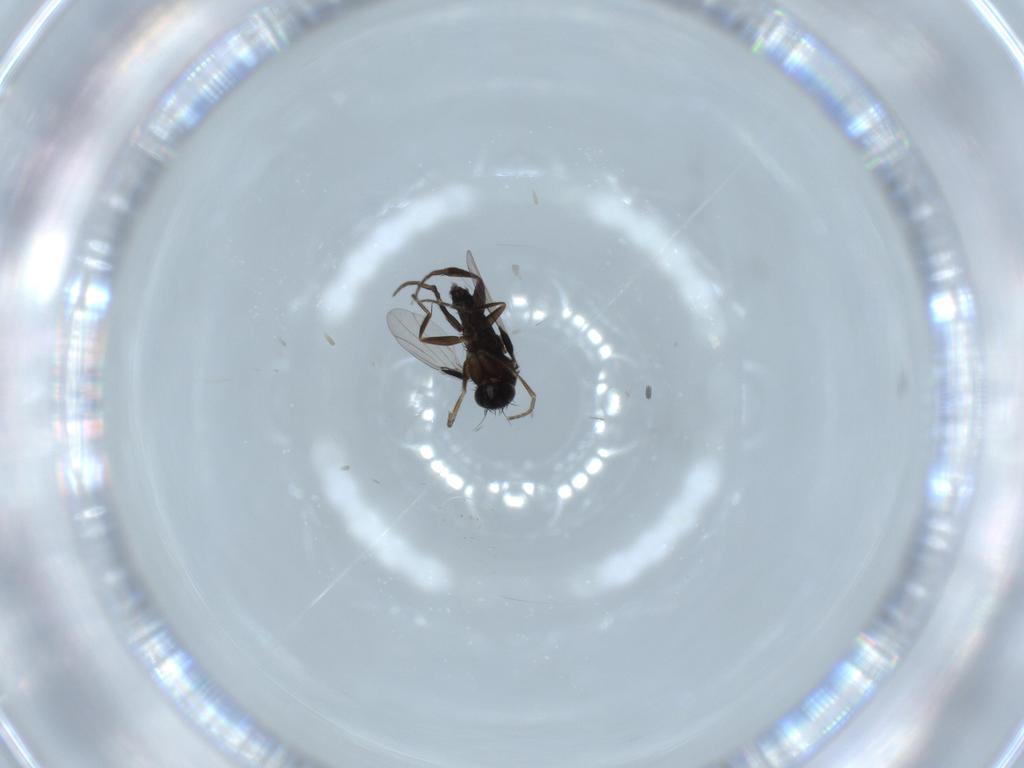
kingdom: Animalia
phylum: Arthropoda
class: Insecta
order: Diptera
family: Phoridae
